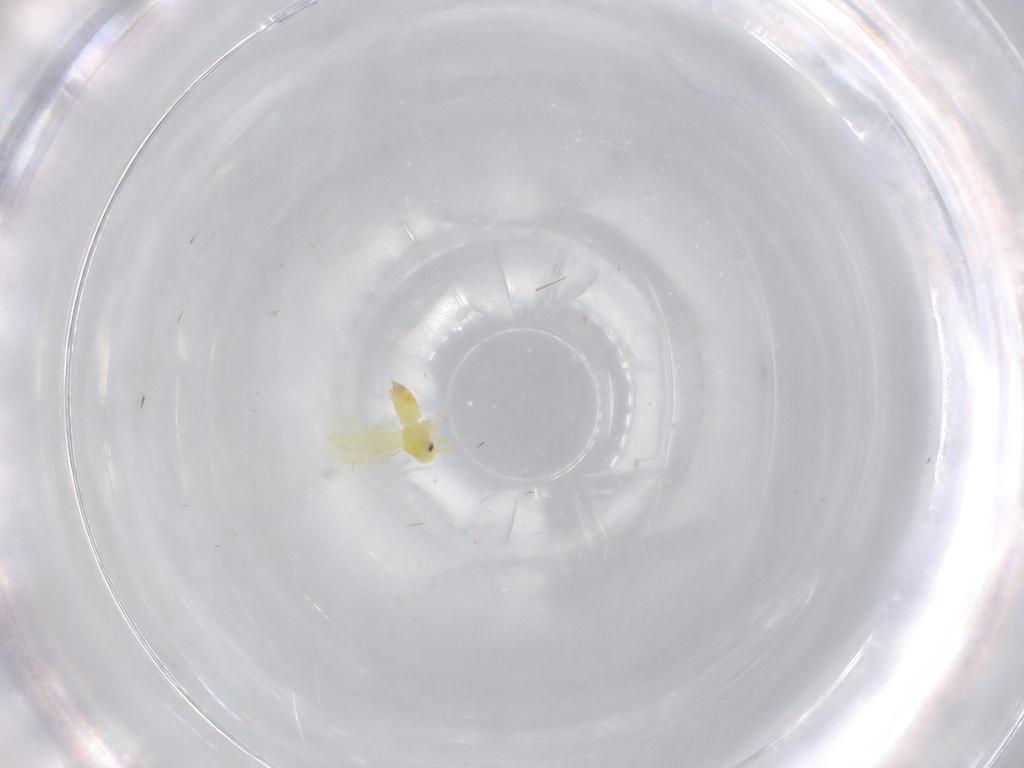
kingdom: Animalia
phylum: Arthropoda
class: Insecta
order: Hemiptera
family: Aleyrodidae
